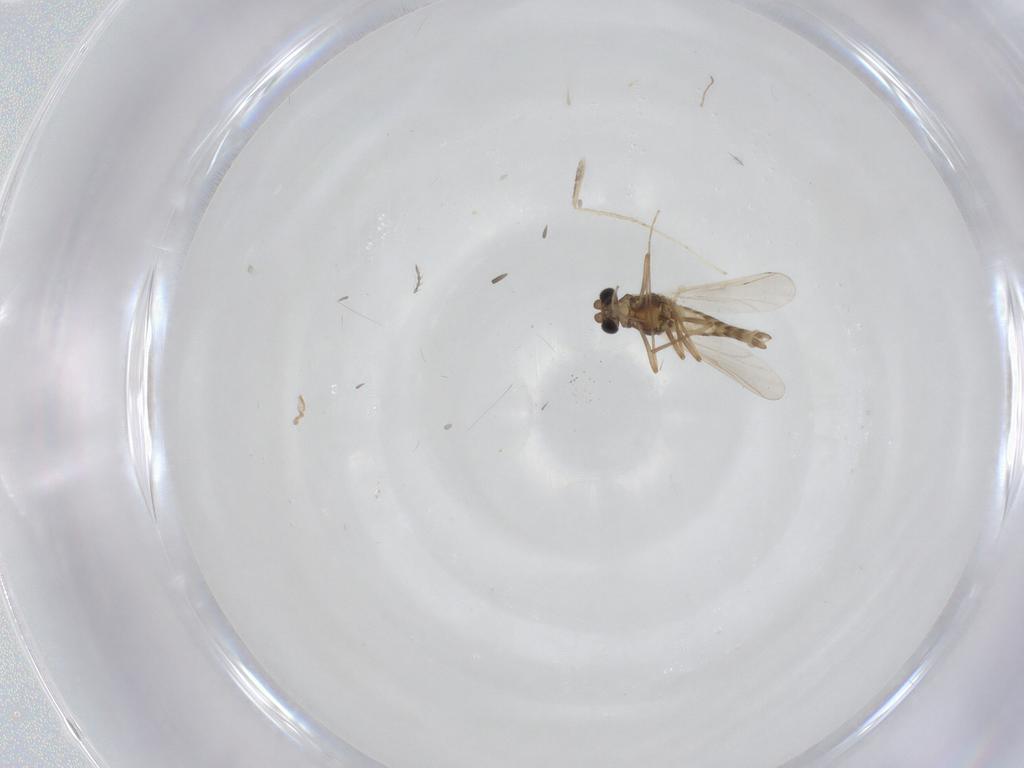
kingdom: Animalia
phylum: Arthropoda
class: Insecta
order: Diptera
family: Chironomidae
